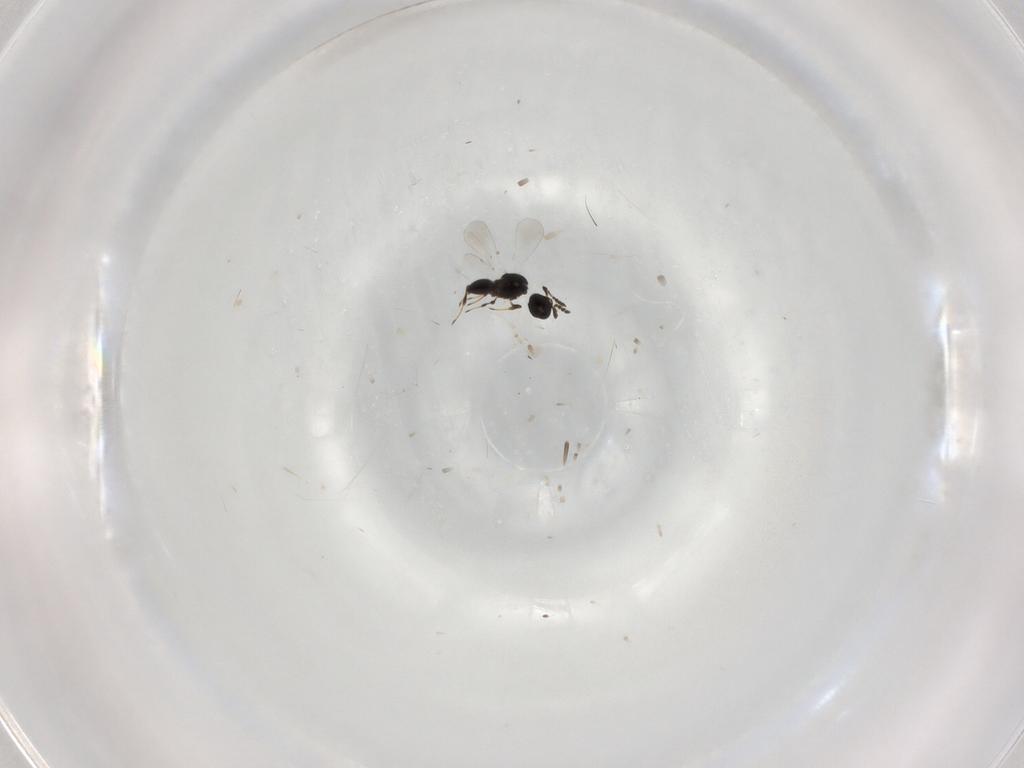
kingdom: Animalia
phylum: Arthropoda
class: Insecta
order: Hymenoptera
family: Platygastridae
